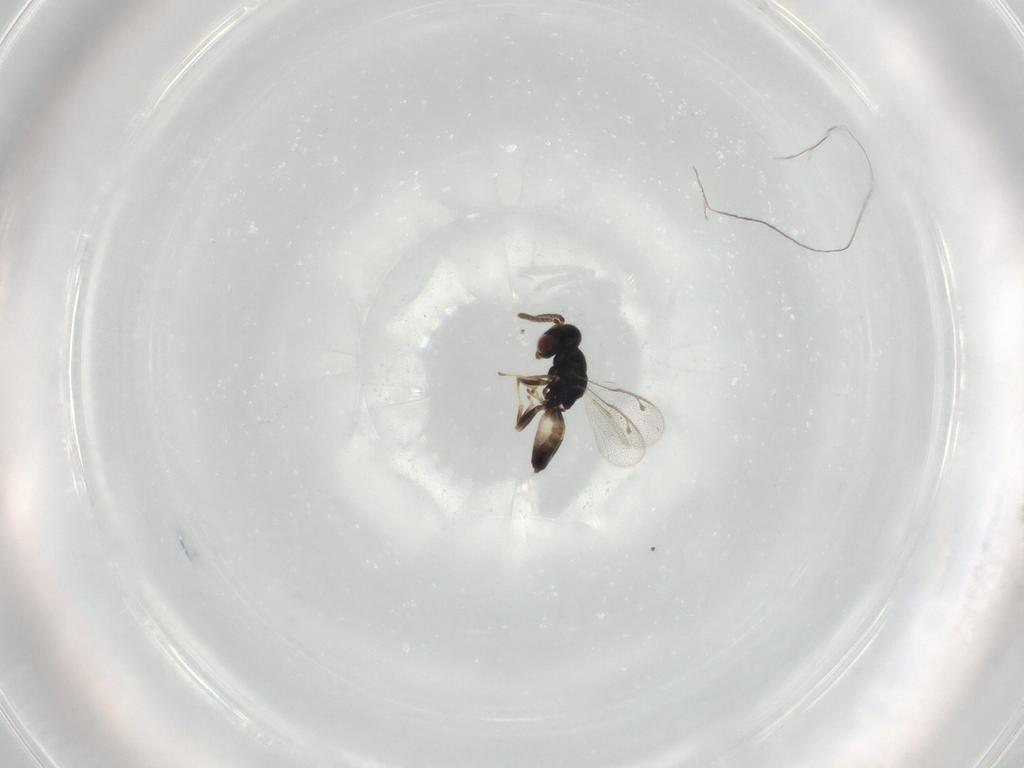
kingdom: Animalia
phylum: Arthropoda
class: Insecta
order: Hymenoptera
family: Pteromalidae
